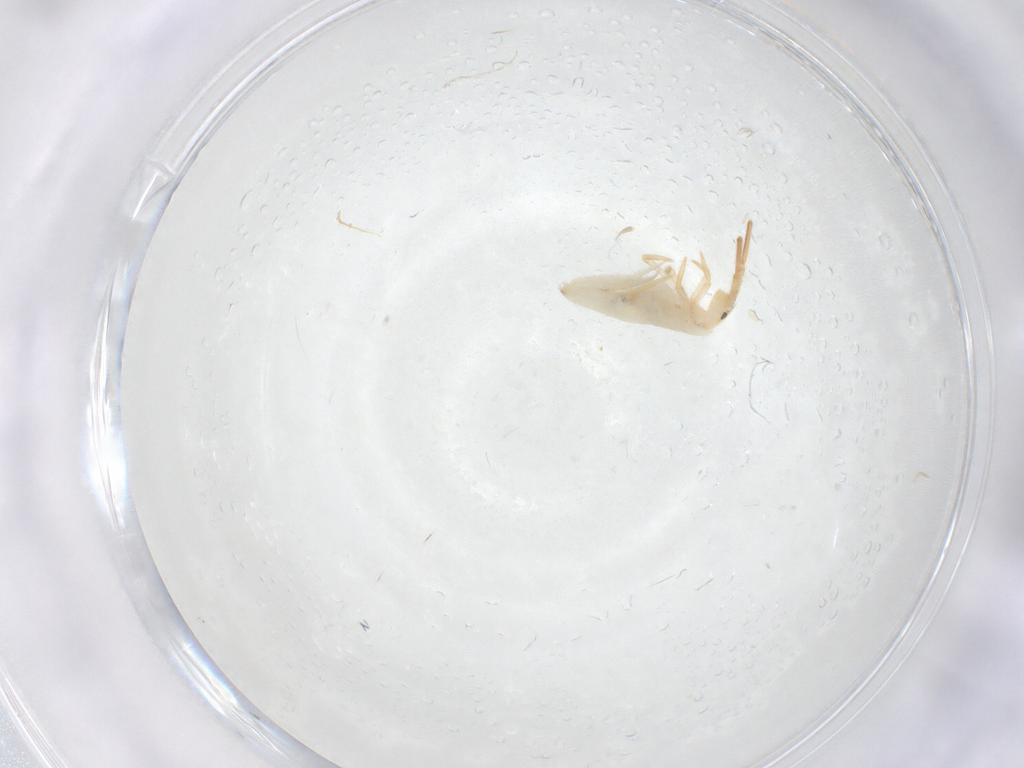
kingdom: Animalia
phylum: Arthropoda
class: Collembola
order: Entomobryomorpha
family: Entomobryidae
